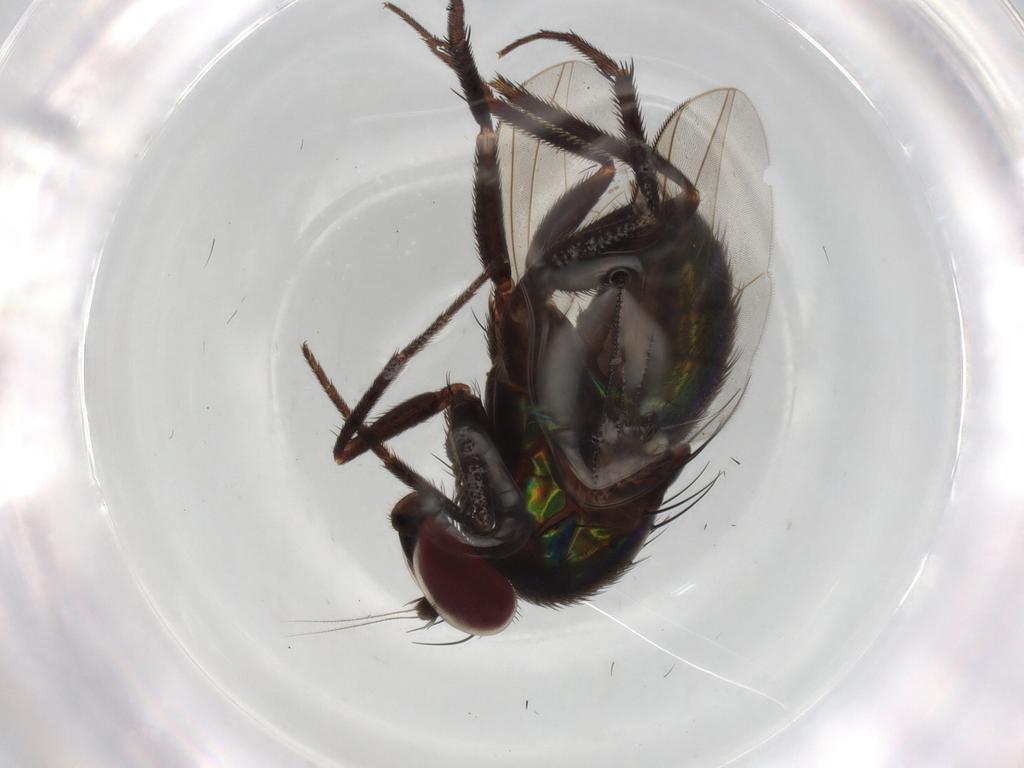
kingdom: Animalia
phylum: Arthropoda
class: Insecta
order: Diptera
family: Dolichopodidae
